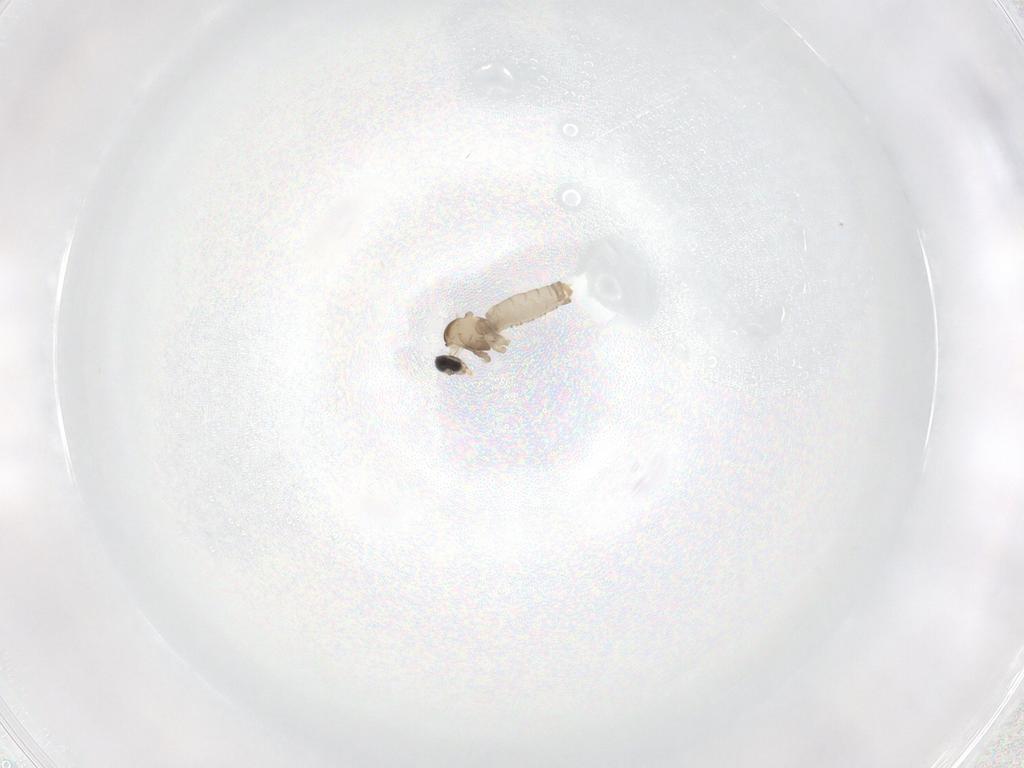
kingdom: Animalia
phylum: Arthropoda
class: Insecta
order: Diptera
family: Cecidomyiidae
